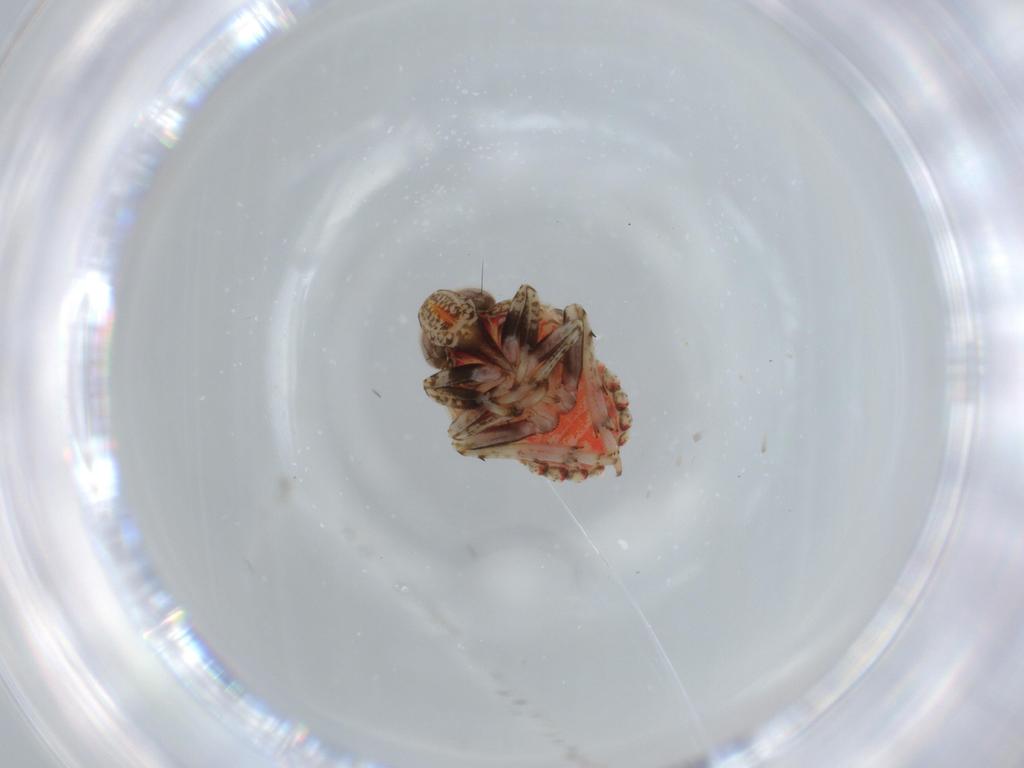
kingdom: Animalia
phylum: Arthropoda
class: Insecta
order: Hemiptera
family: Issidae
